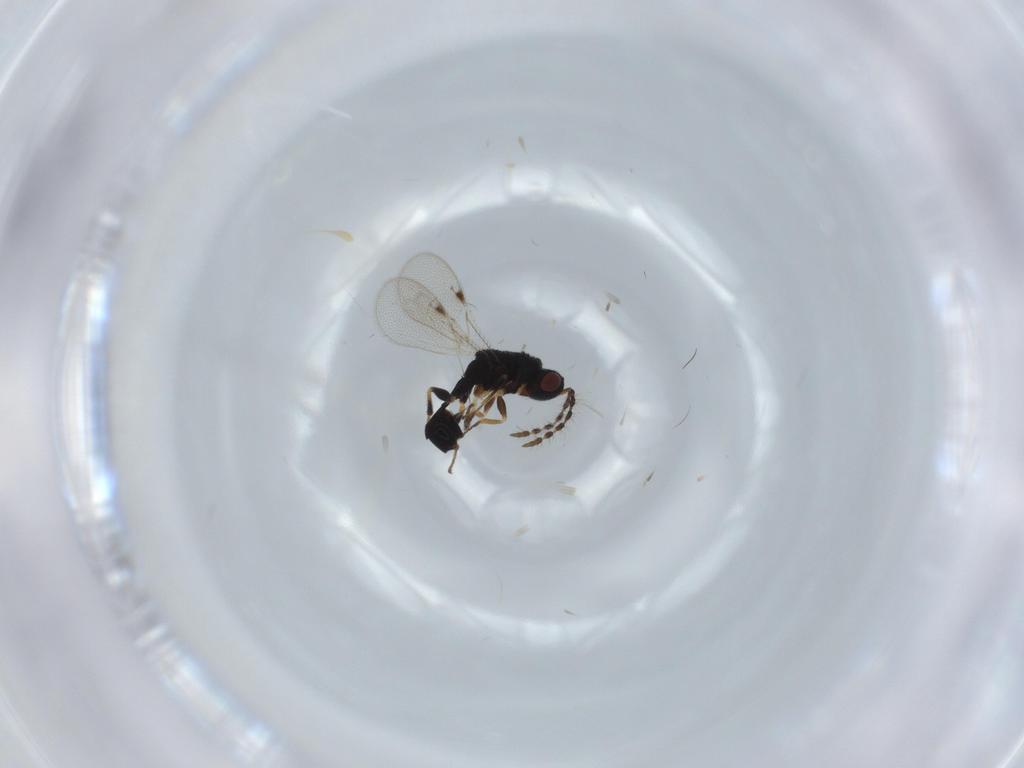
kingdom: Animalia
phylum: Arthropoda
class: Insecta
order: Hymenoptera
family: Eurytomidae
